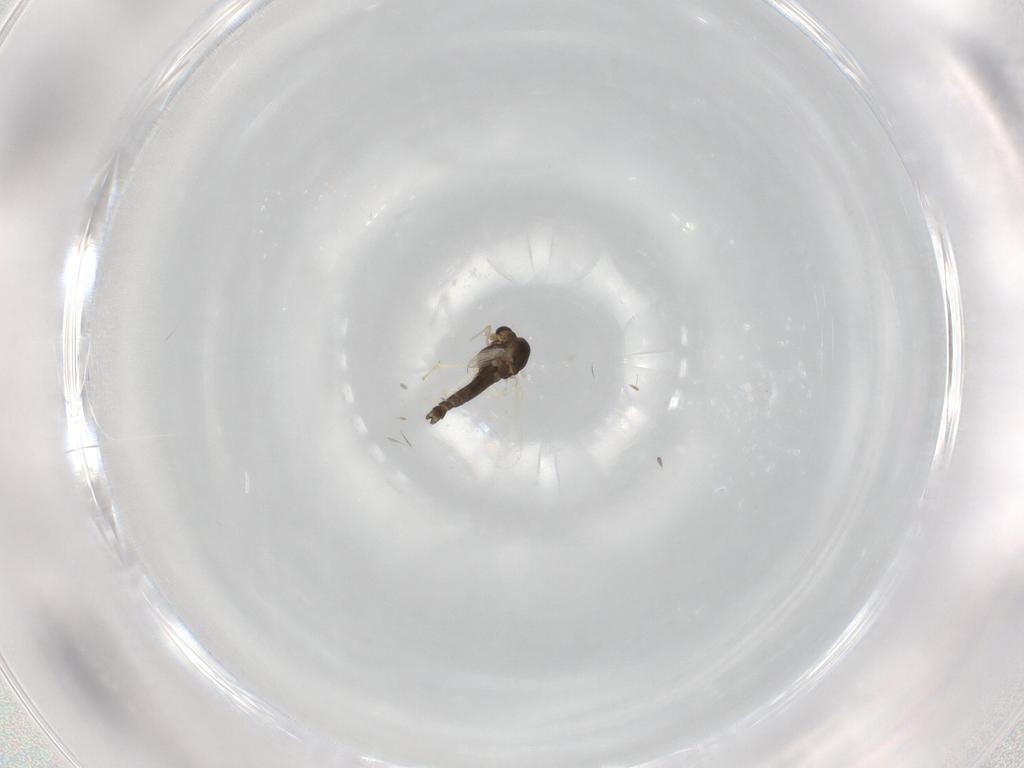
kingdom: Animalia
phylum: Arthropoda
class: Insecta
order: Diptera
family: Chironomidae
